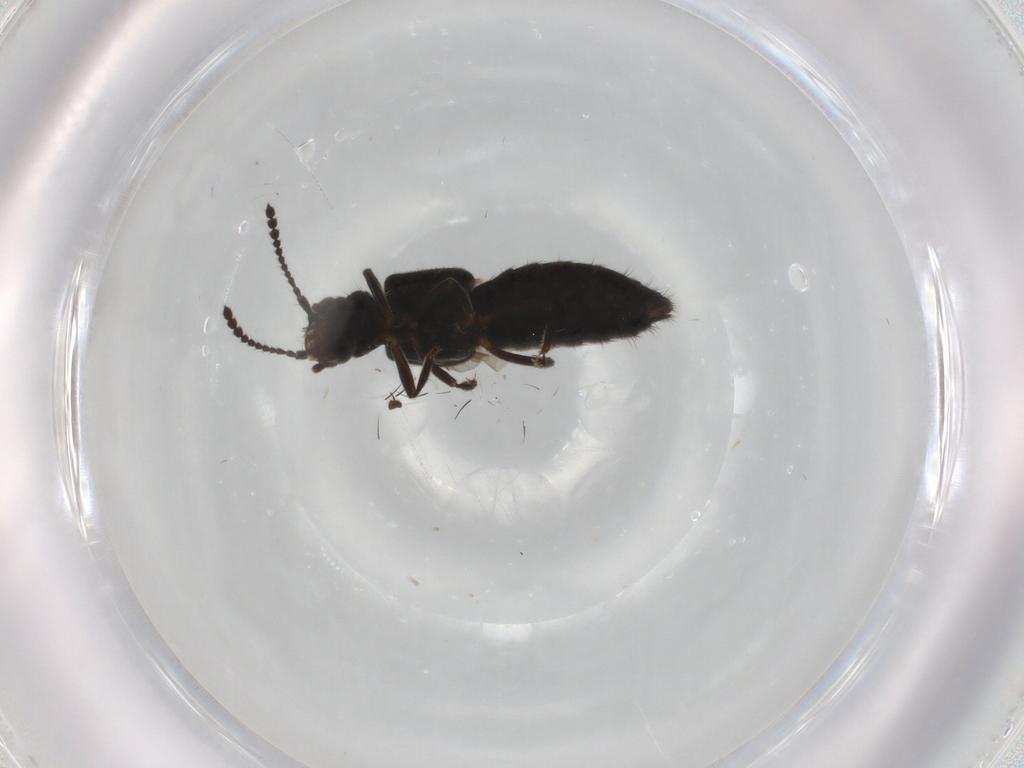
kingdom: Animalia
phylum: Arthropoda
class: Insecta
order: Coleoptera
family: Staphylinidae
